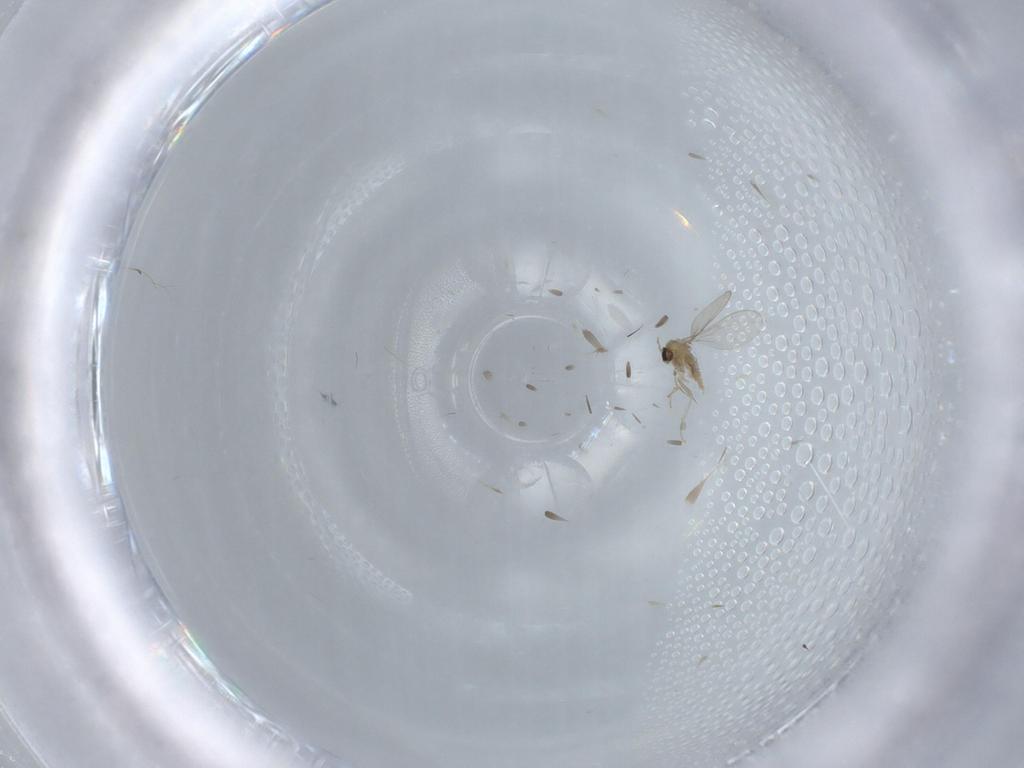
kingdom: Animalia
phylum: Arthropoda
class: Insecta
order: Diptera
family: Cecidomyiidae
